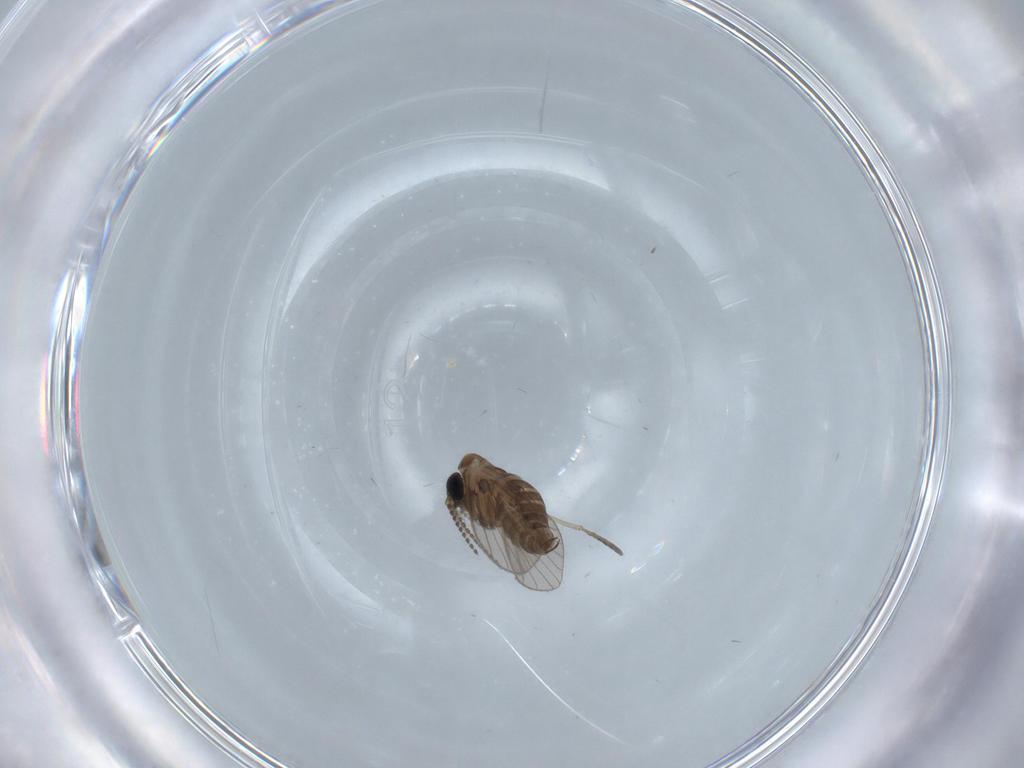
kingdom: Animalia
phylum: Arthropoda
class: Insecta
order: Diptera
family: Psychodidae
